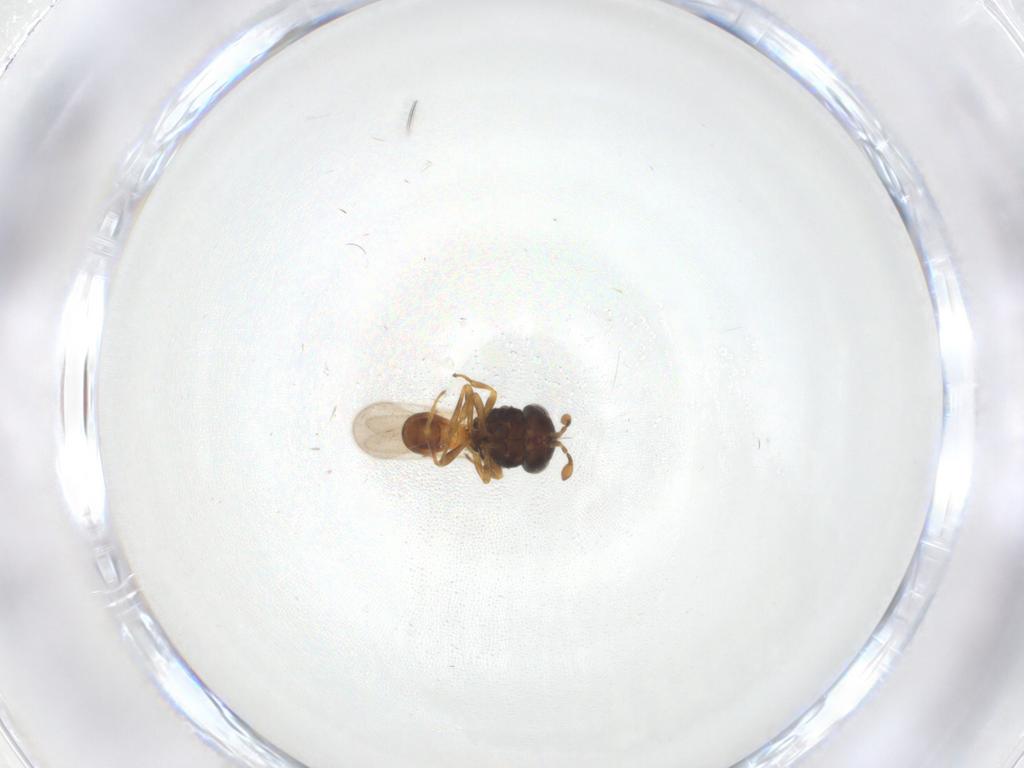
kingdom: Animalia
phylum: Arthropoda
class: Insecta
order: Hymenoptera
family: Scelionidae
